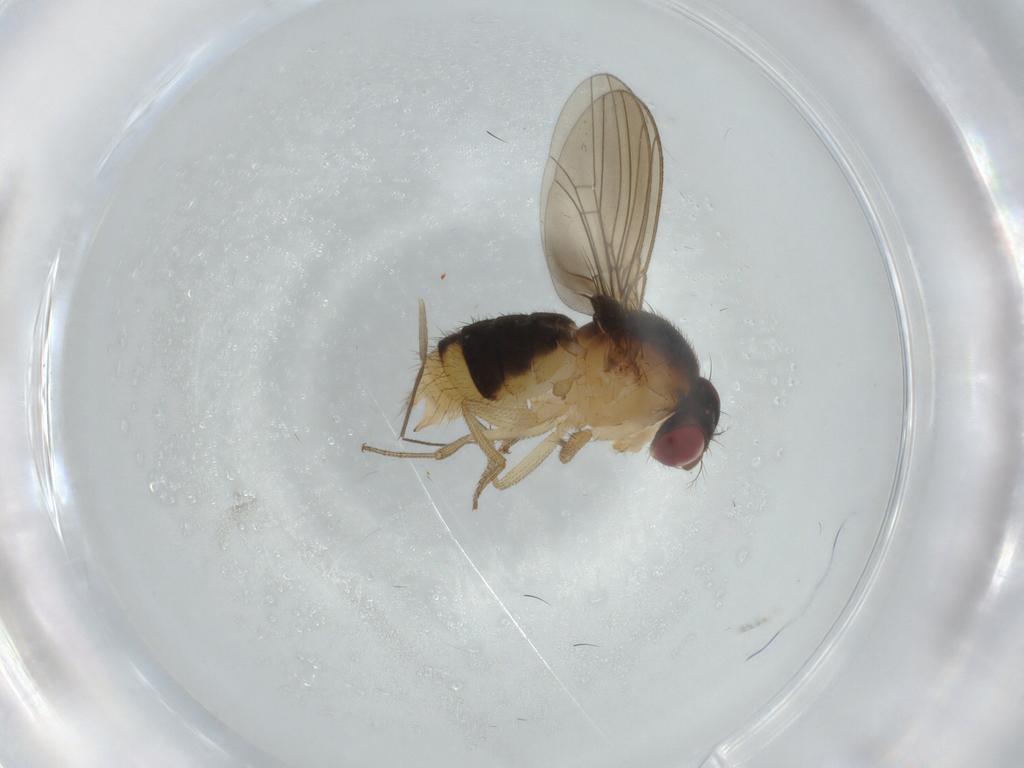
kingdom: Animalia
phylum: Arthropoda
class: Insecta
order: Diptera
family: Drosophilidae
